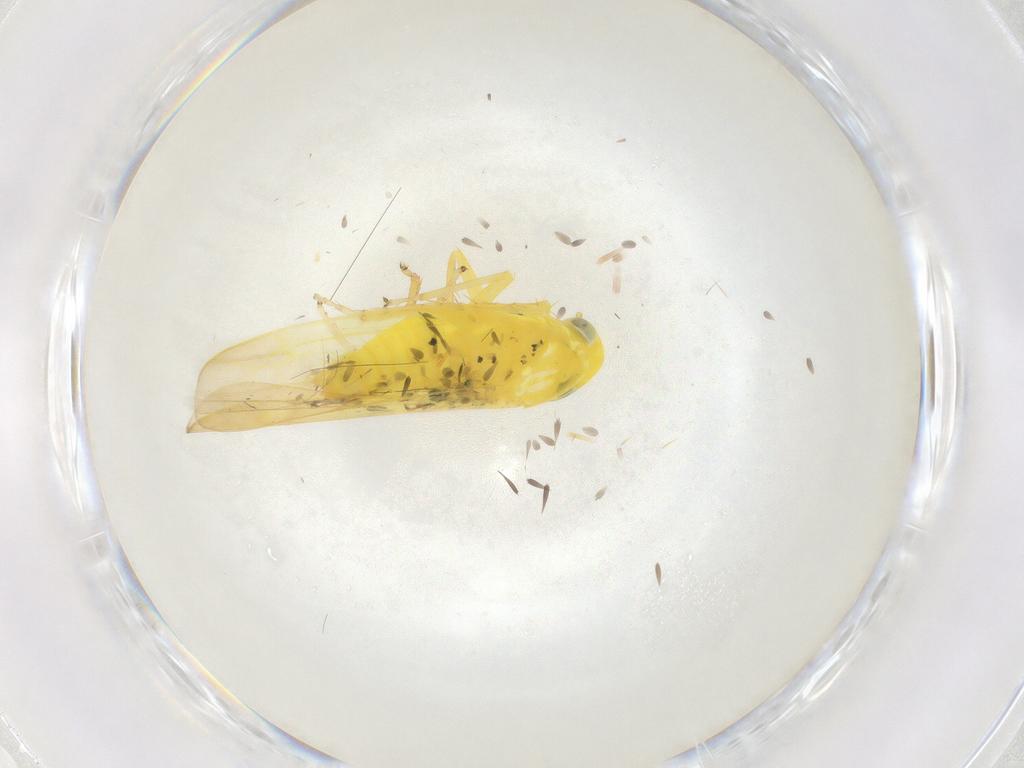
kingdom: Animalia
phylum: Arthropoda
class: Insecta
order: Hemiptera
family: Cicadellidae
